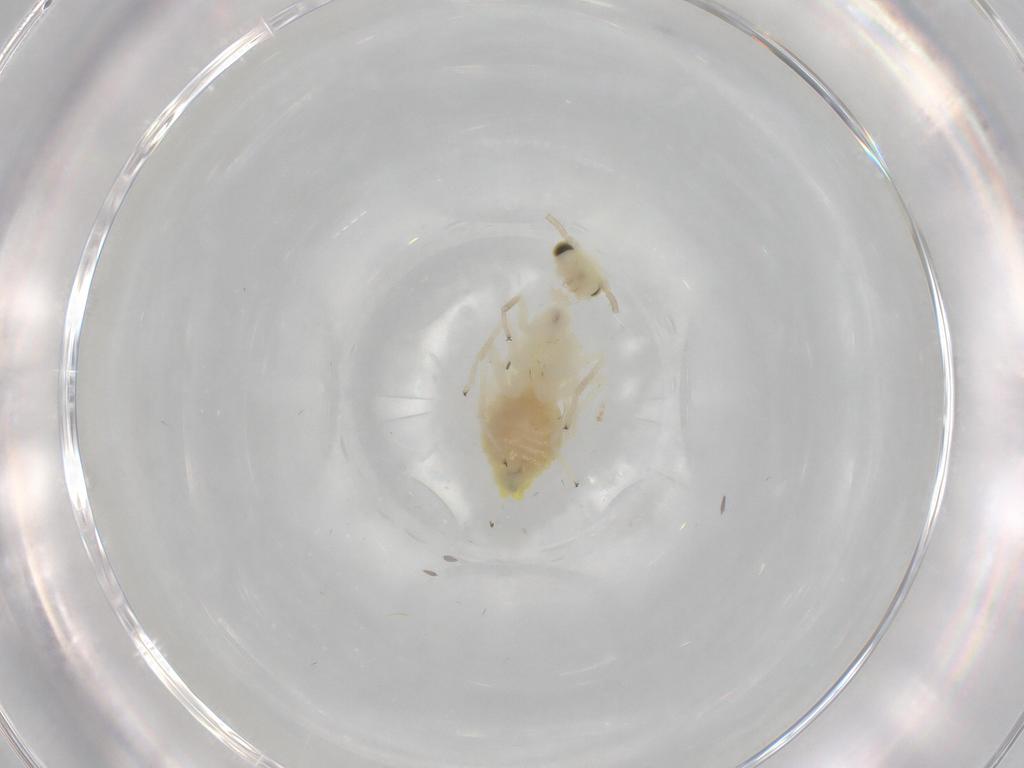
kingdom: Animalia
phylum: Arthropoda
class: Insecta
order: Psocodea
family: Caeciliusidae
